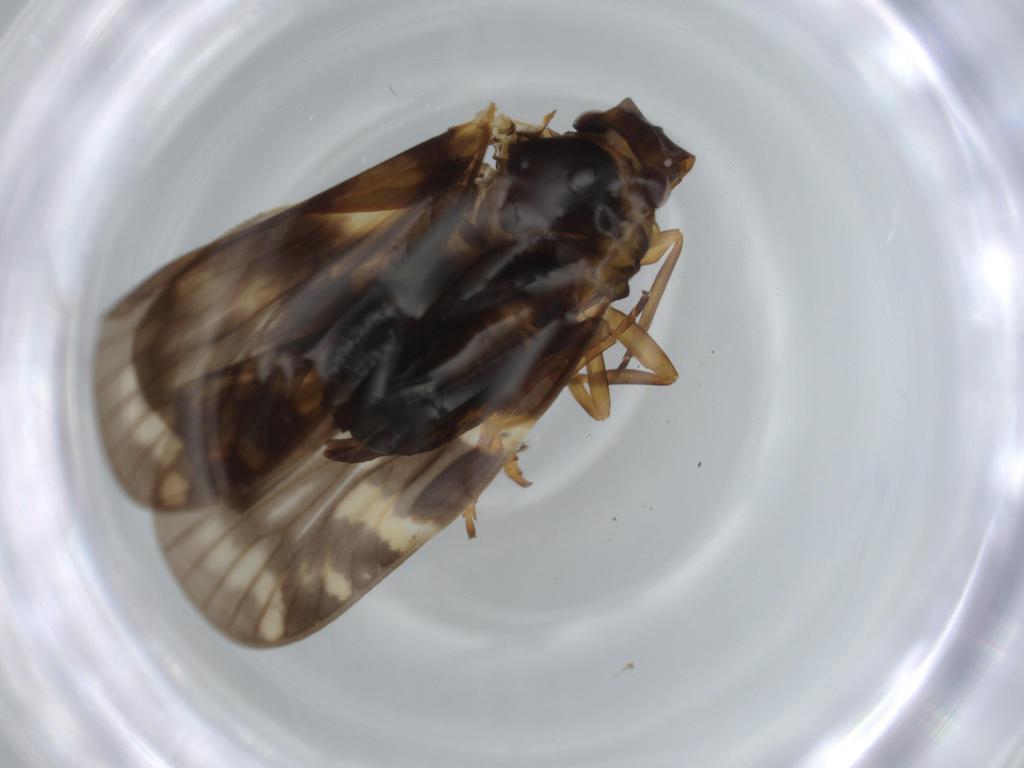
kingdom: Animalia
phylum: Arthropoda
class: Insecta
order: Hemiptera
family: Cixiidae
